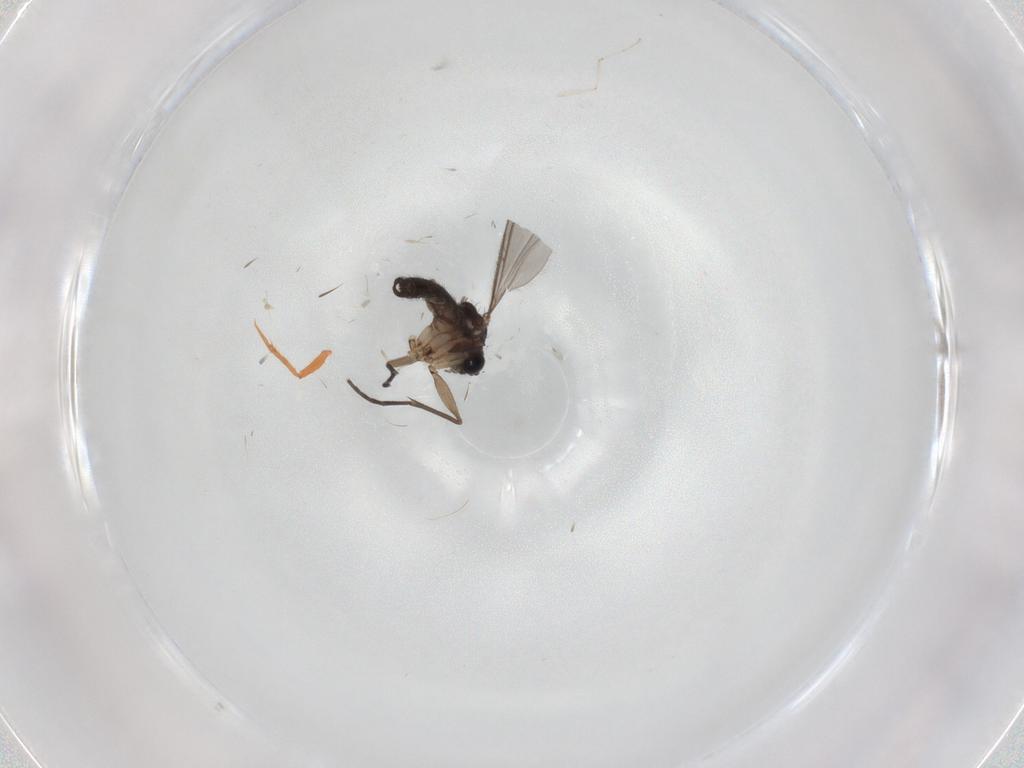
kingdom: Animalia
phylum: Arthropoda
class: Insecta
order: Diptera
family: Sciaridae
